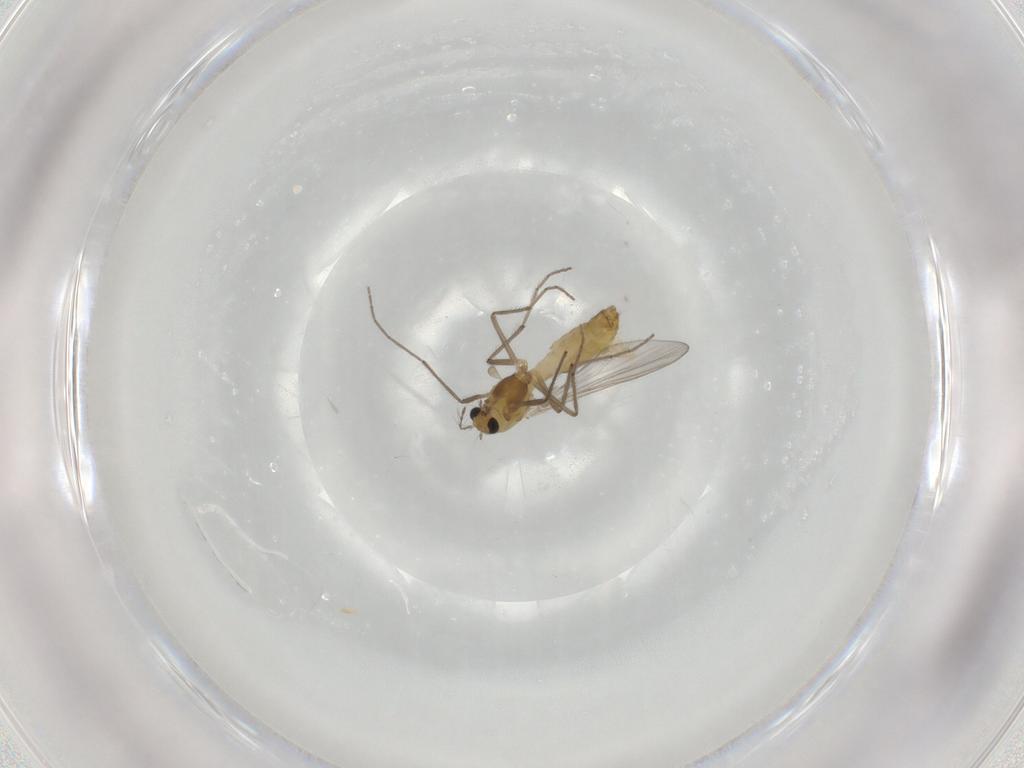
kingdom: Animalia
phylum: Arthropoda
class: Insecta
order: Diptera
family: Chironomidae
